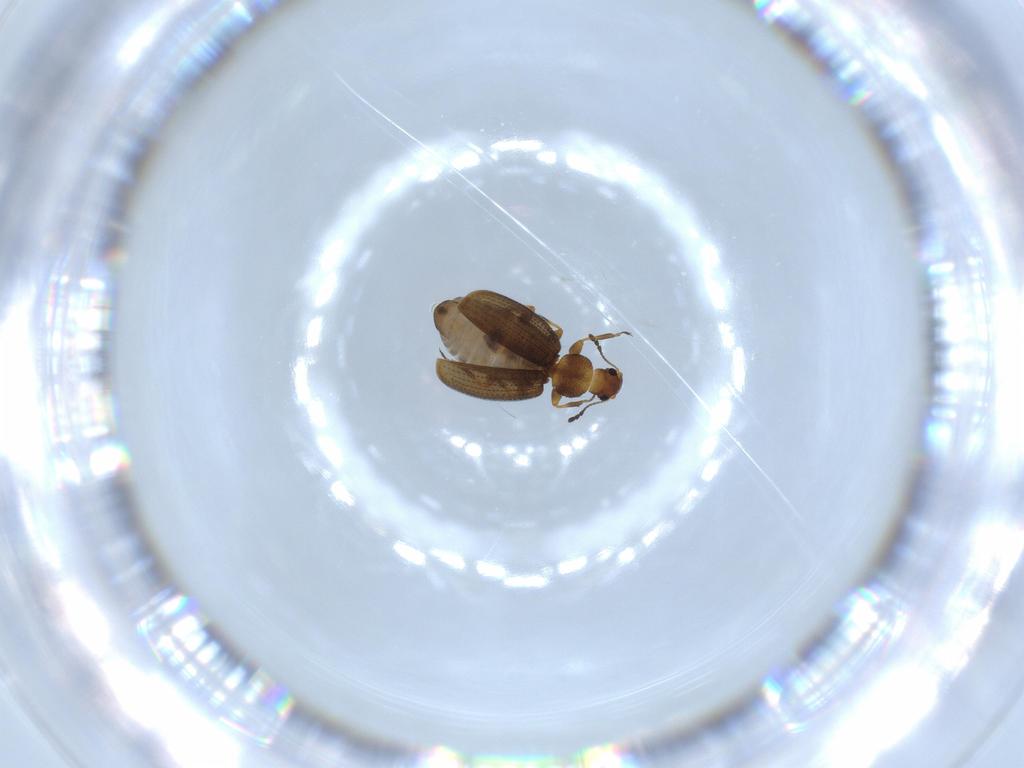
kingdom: Animalia
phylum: Arthropoda
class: Insecta
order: Coleoptera
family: Latridiidae
